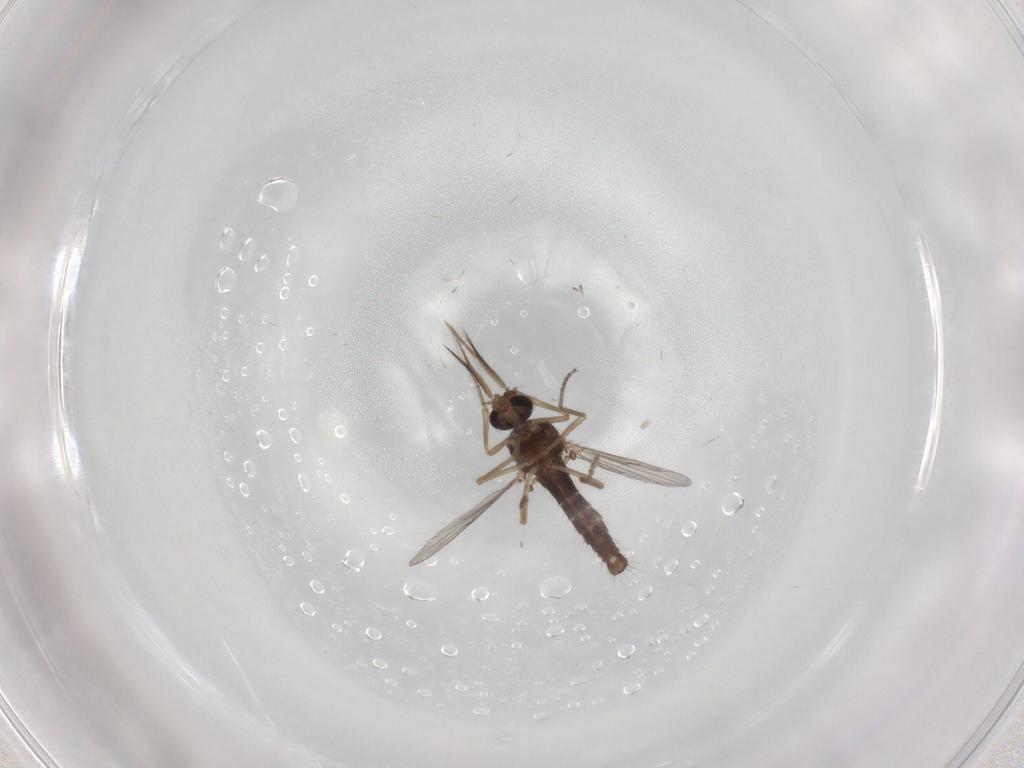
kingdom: Animalia
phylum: Arthropoda
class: Insecta
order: Diptera
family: Ceratopogonidae
